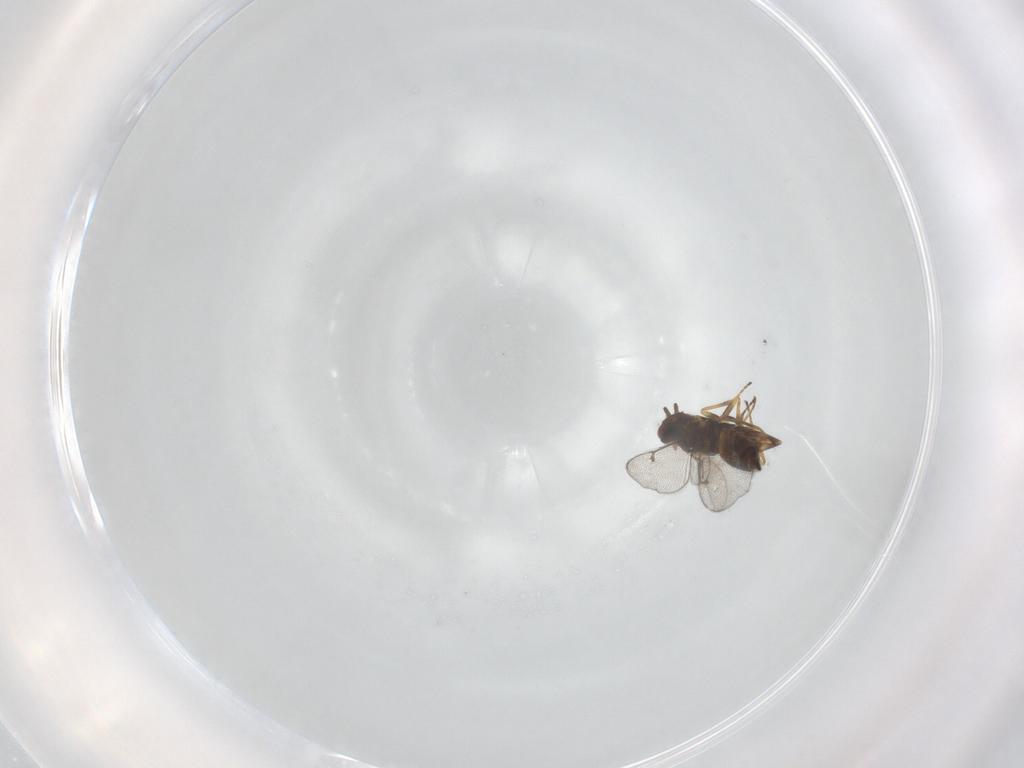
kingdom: Animalia
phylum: Arthropoda
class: Insecta
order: Hymenoptera
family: Eulophidae
